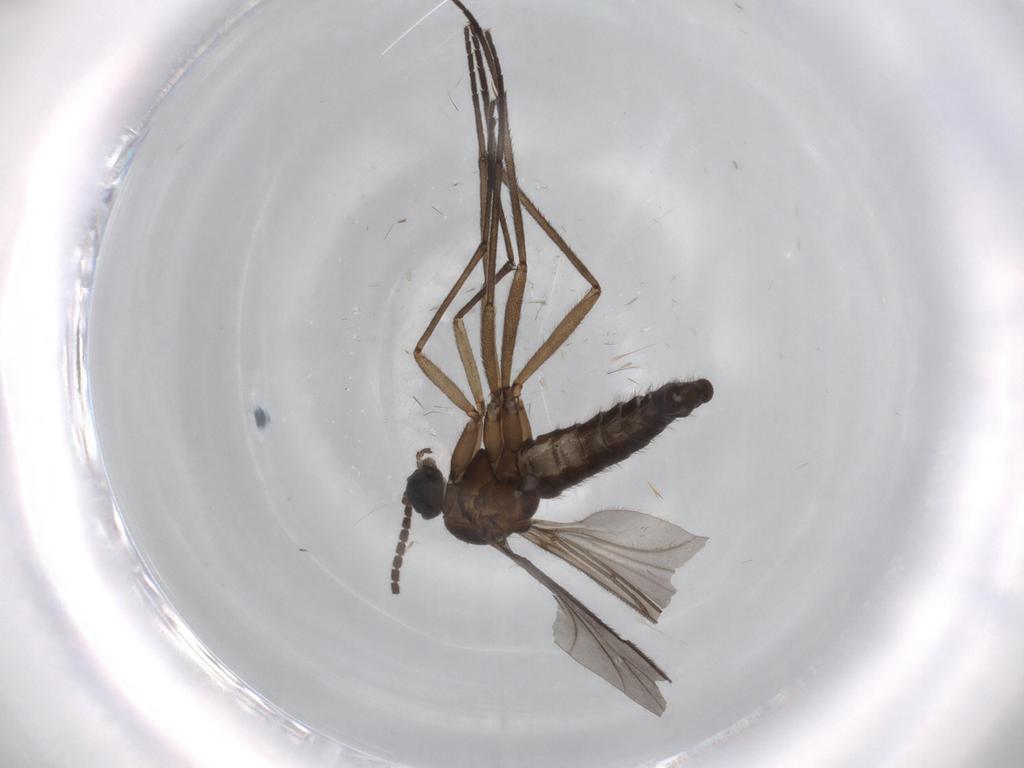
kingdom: Animalia
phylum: Arthropoda
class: Insecta
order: Diptera
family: Sciaridae
